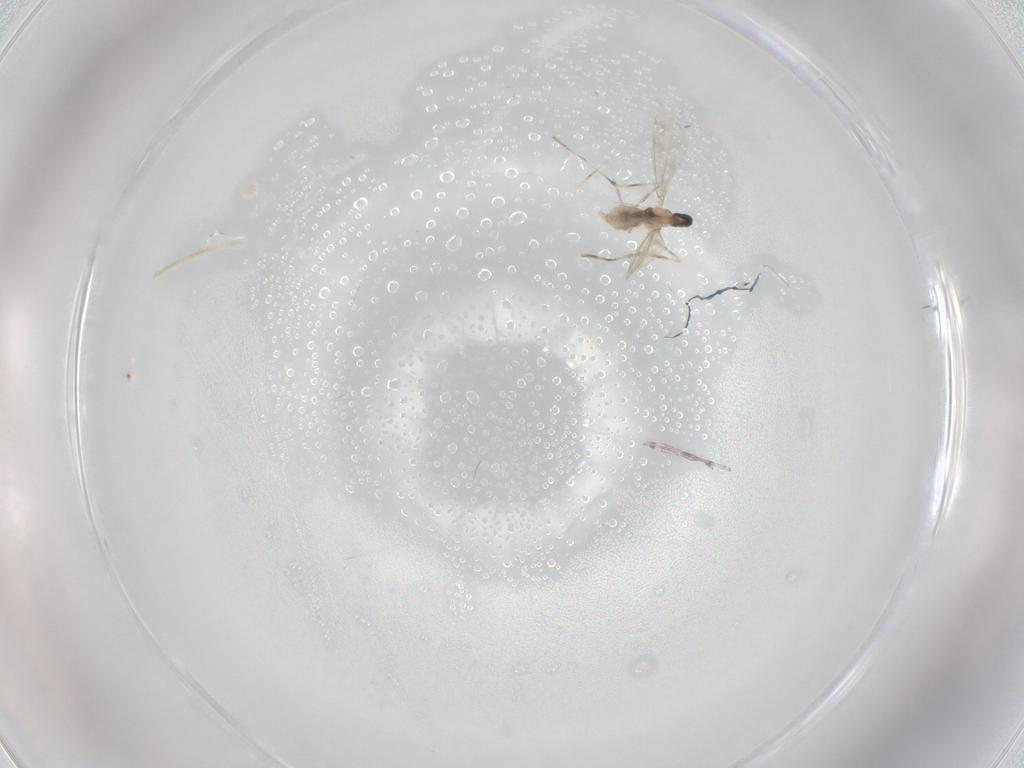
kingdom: Animalia
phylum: Arthropoda
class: Insecta
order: Diptera
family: Cecidomyiidae
